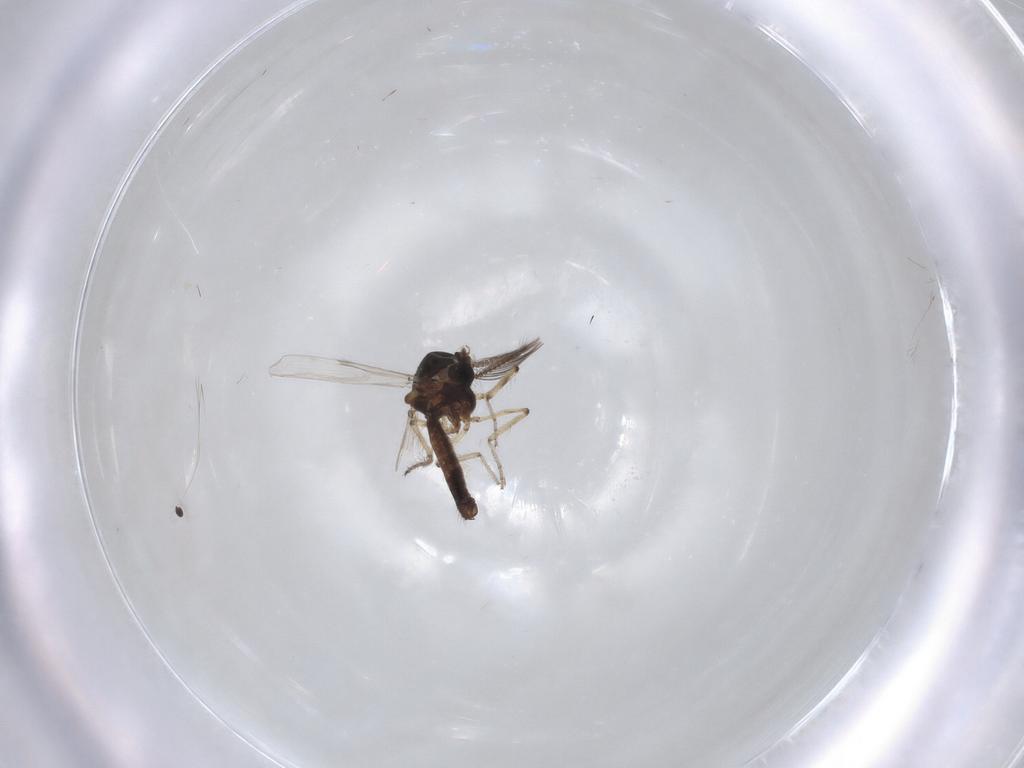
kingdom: Animalia
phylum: Arthropoda
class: Insecta
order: Diptera
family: Ceratopogonidae
